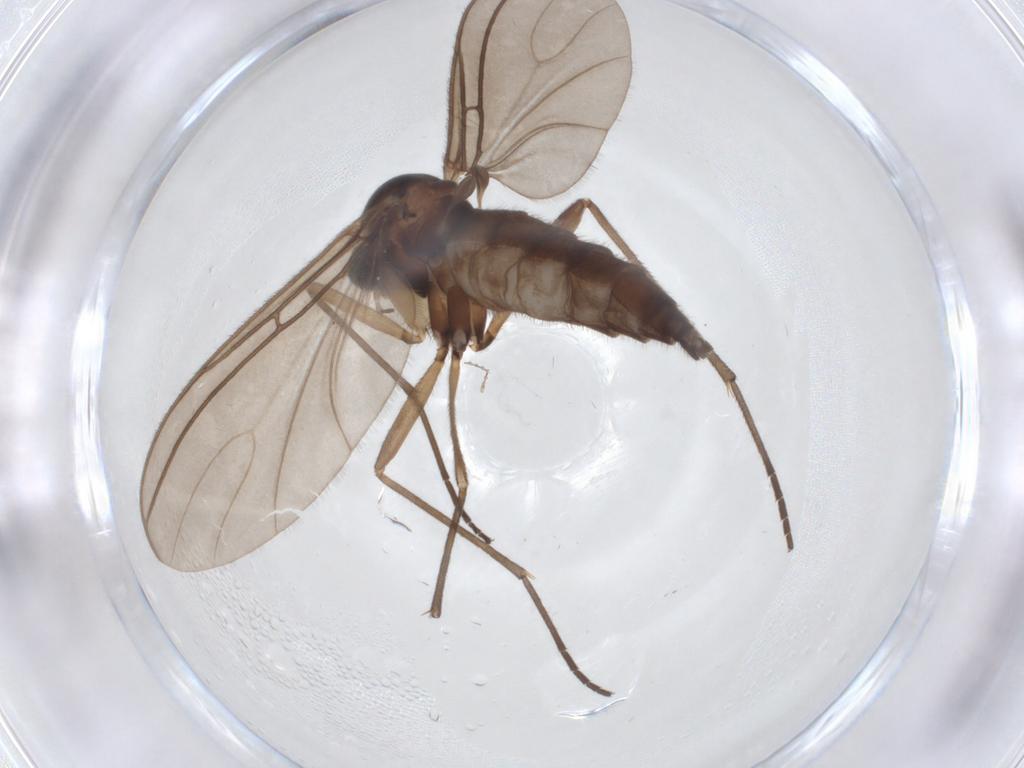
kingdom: Animalia
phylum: Arthropoda
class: Insecta
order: Diptera
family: Sciaridae
